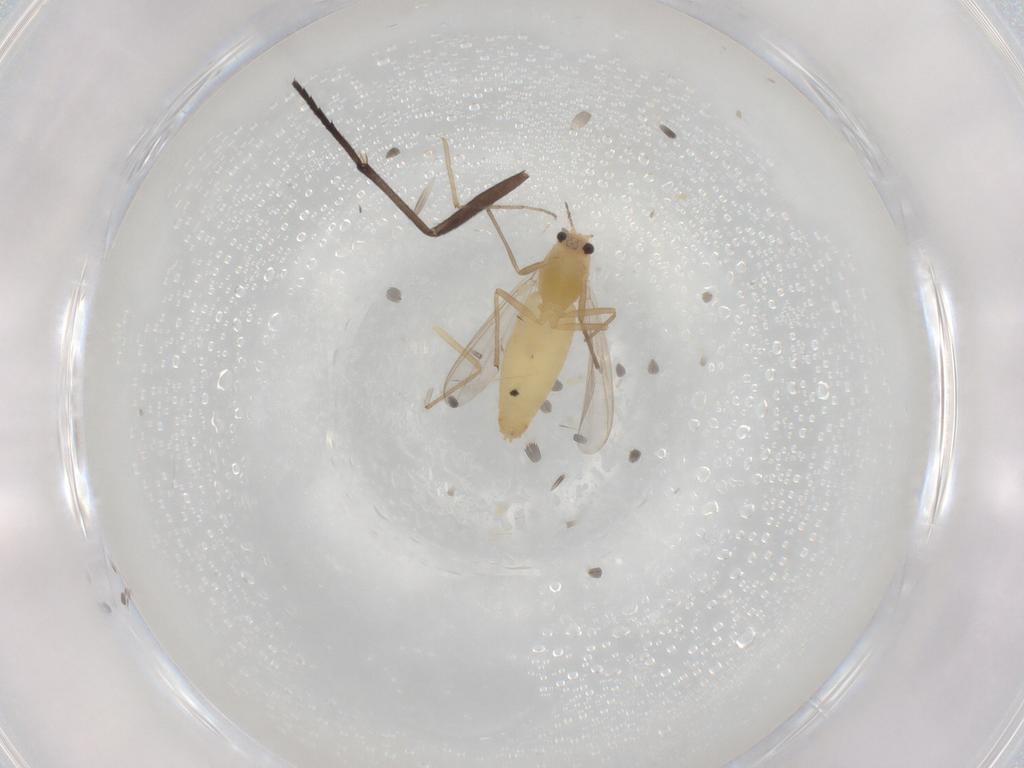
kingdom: Animalia
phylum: Arthropoda
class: Insecta
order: Diptera
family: Chironomidae
